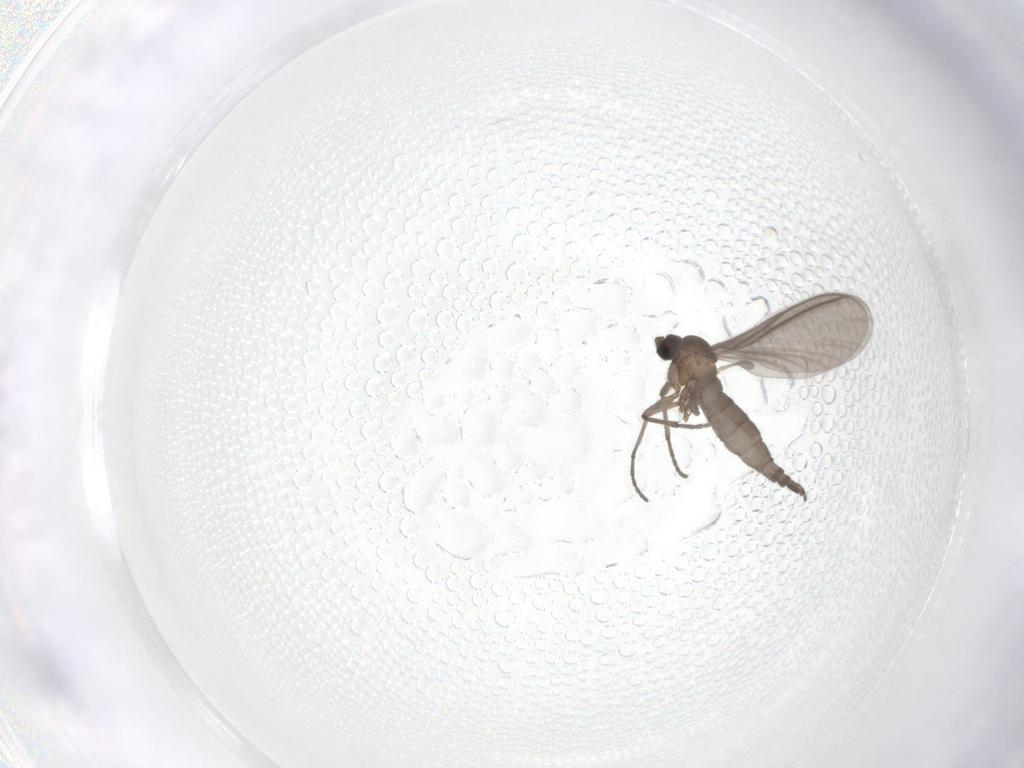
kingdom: Animalia
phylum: Arthropoda
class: Insecta
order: Diptera
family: Sciaridae
